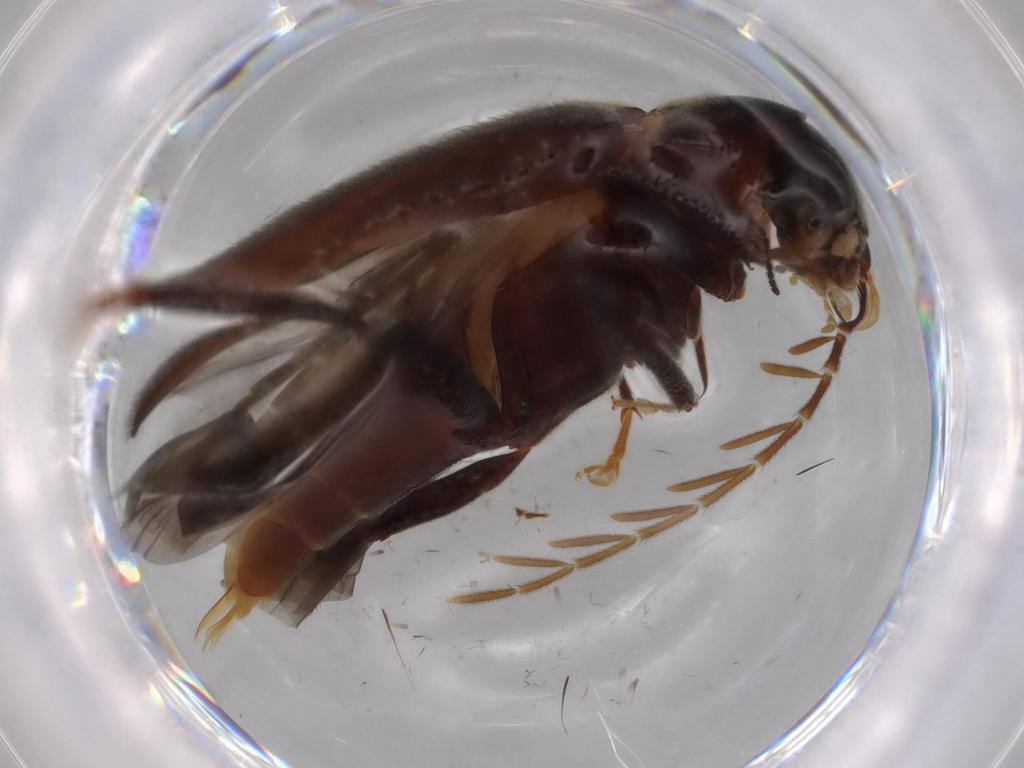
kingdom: Animalia
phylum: Arthropoda
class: Insecta
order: Coleoptera
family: Ptilodactylidae
